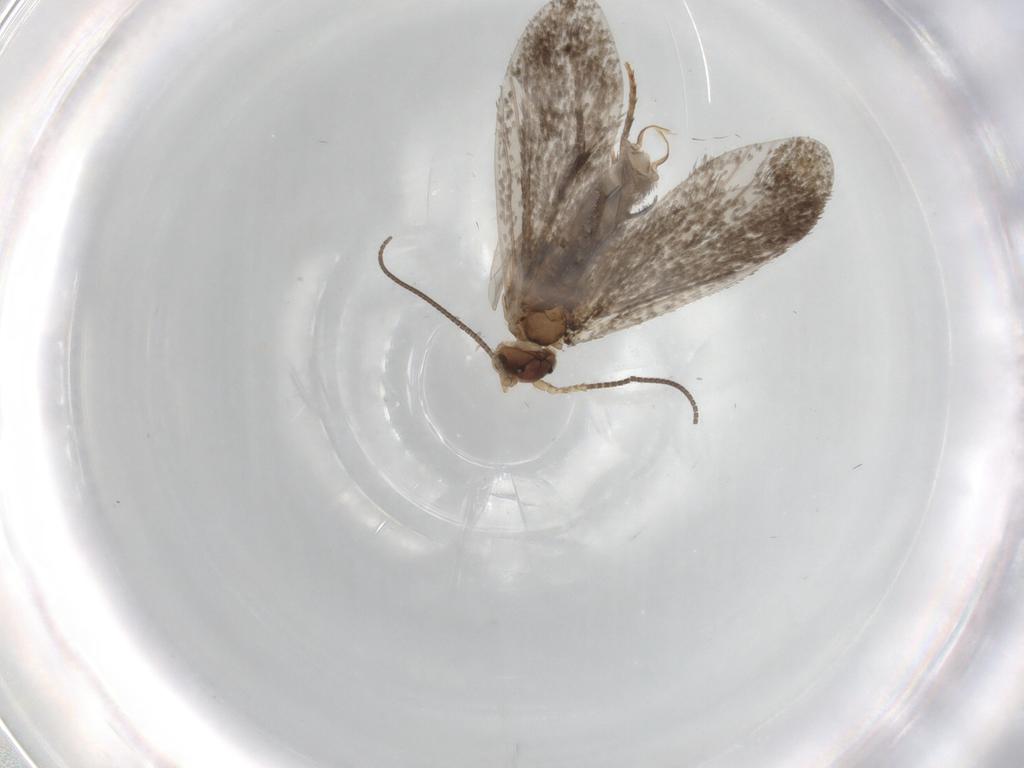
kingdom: Animalia
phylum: Arthropoda
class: Insecta
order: Lepidoptera
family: Micropterigidae
